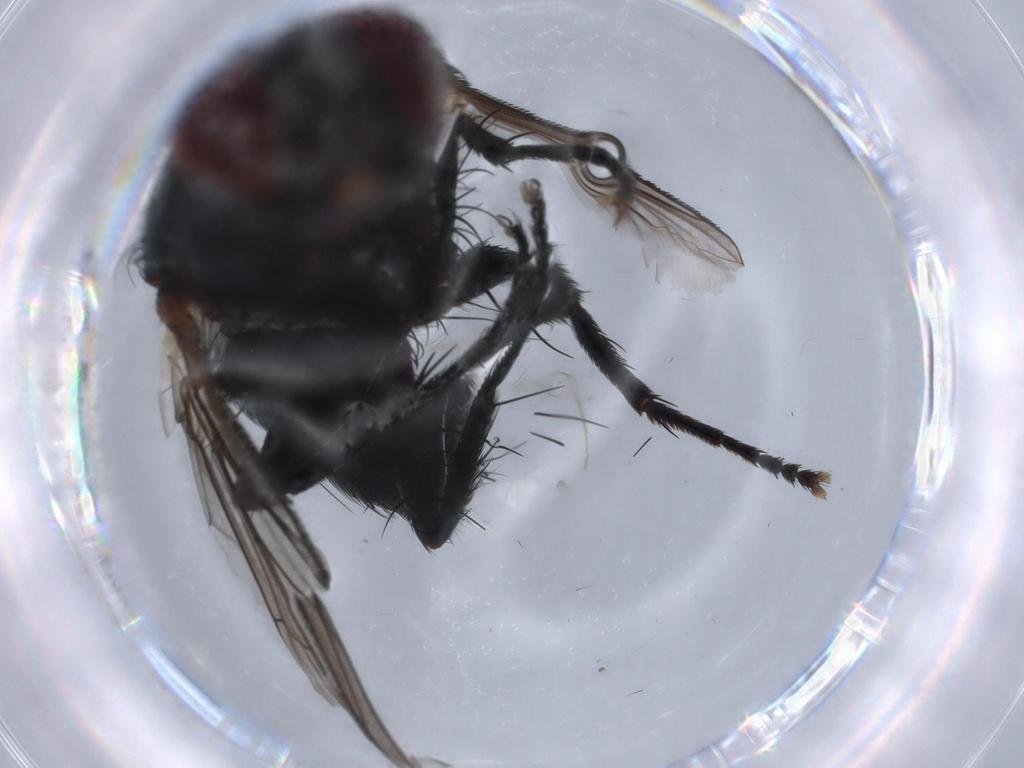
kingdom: Animalia
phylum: Arthropoda
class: Insecta
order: Diptera
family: Tachinidae
